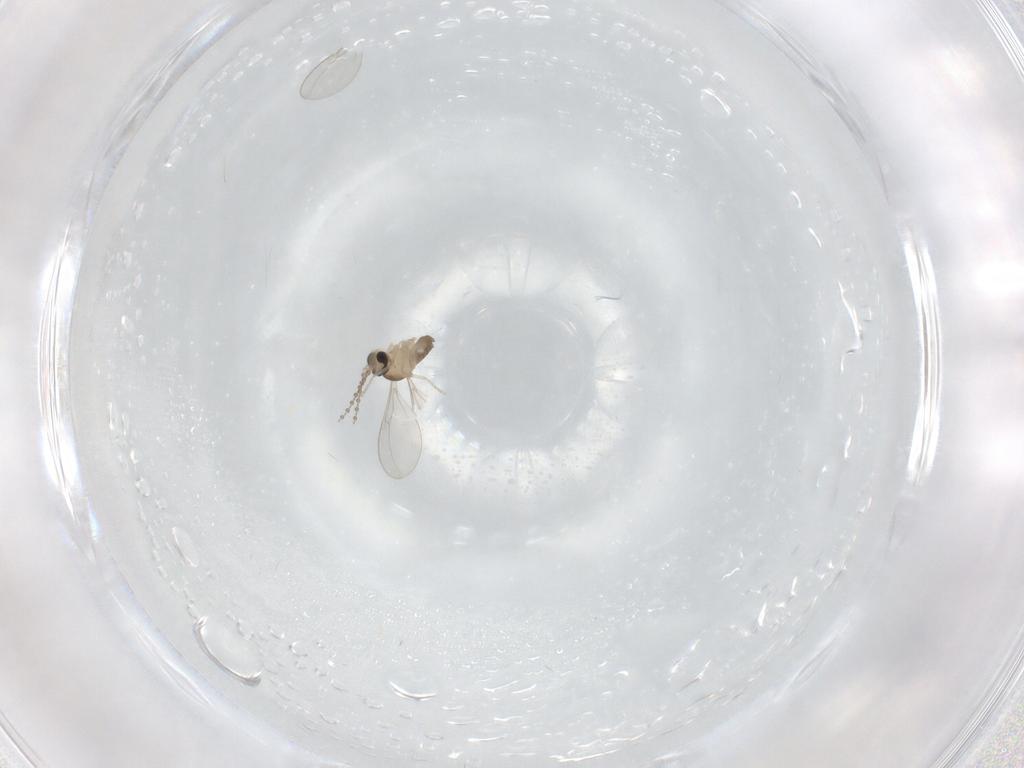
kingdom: Animalia
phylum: Arthropoda
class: Insecta
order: Diptera
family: Cecidomyiidae
